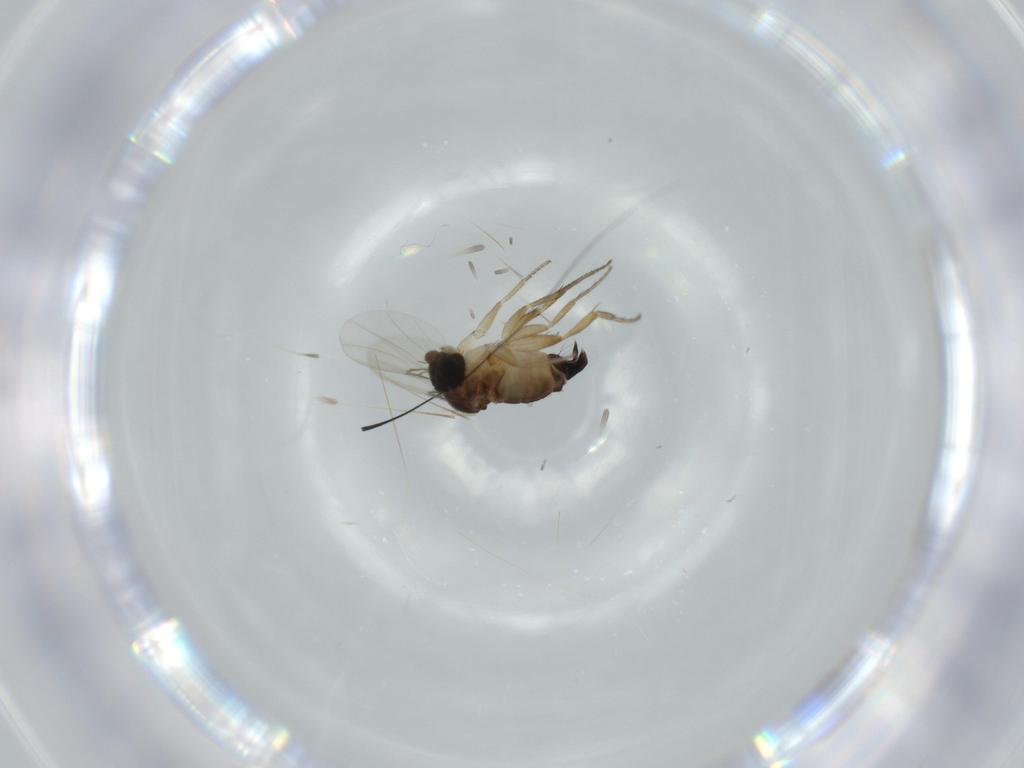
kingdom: Animalia
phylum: Arthropoda
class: Insecta
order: Diptera
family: Phoridae
